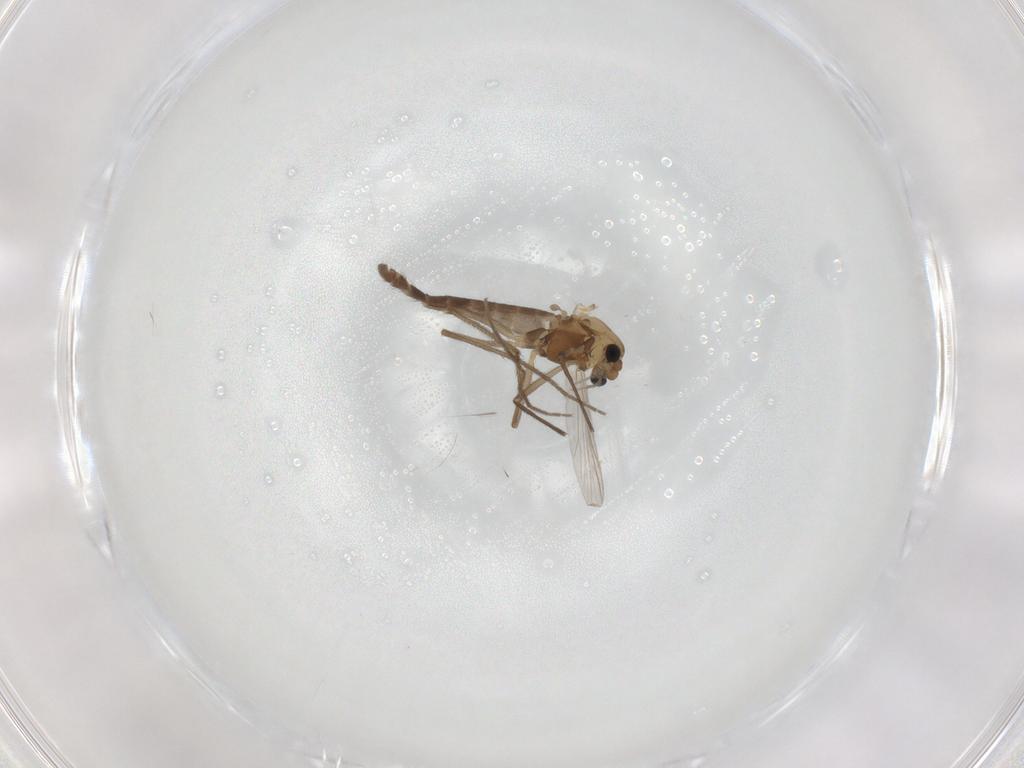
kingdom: Animalia
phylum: Arthropoda
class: Insecta
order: Diptera
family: Chironomidae
